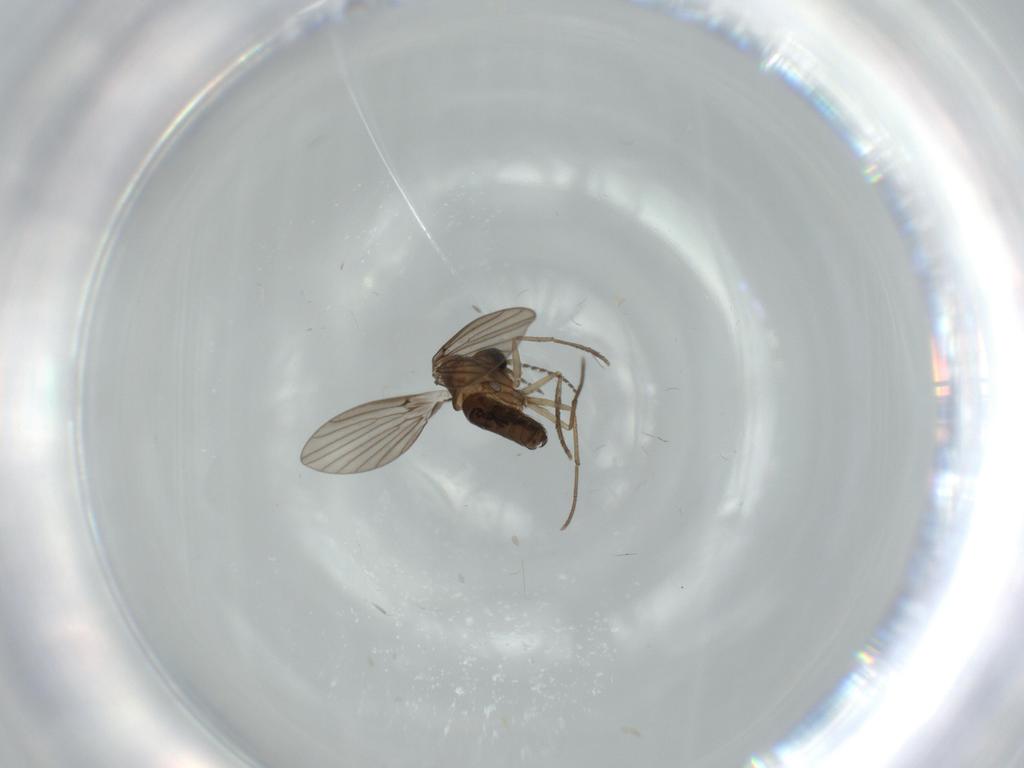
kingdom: Animalia
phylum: Arthropoda
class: Insecta
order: Diptera
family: Psychodidae
